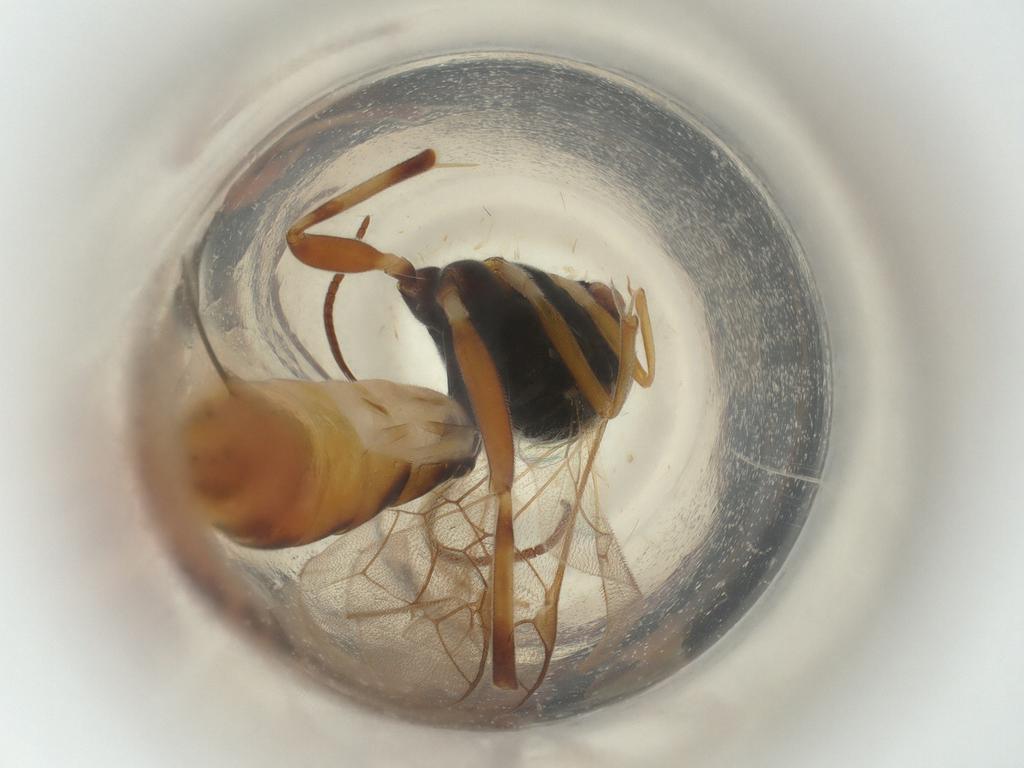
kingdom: Animalia
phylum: Arthropoda
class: Insecta
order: Hymenoptera
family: Ichneumonidae
